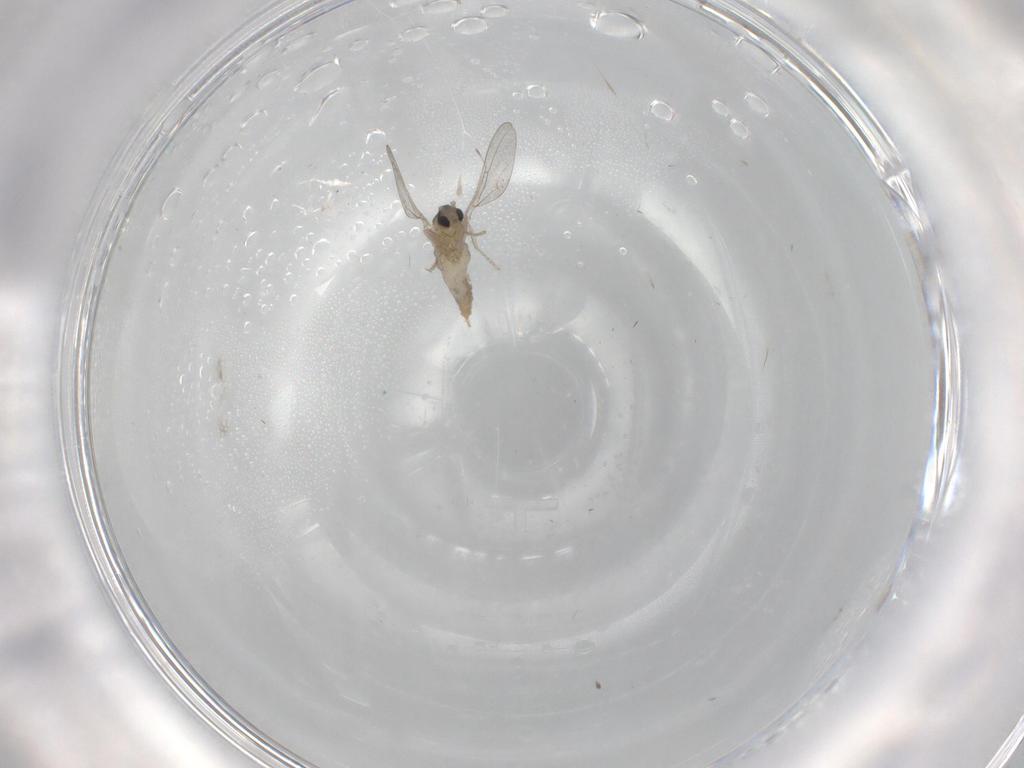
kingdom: Animalia
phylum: Arthropoda
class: Insecta
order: Diptera
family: Cecidomyiidae
